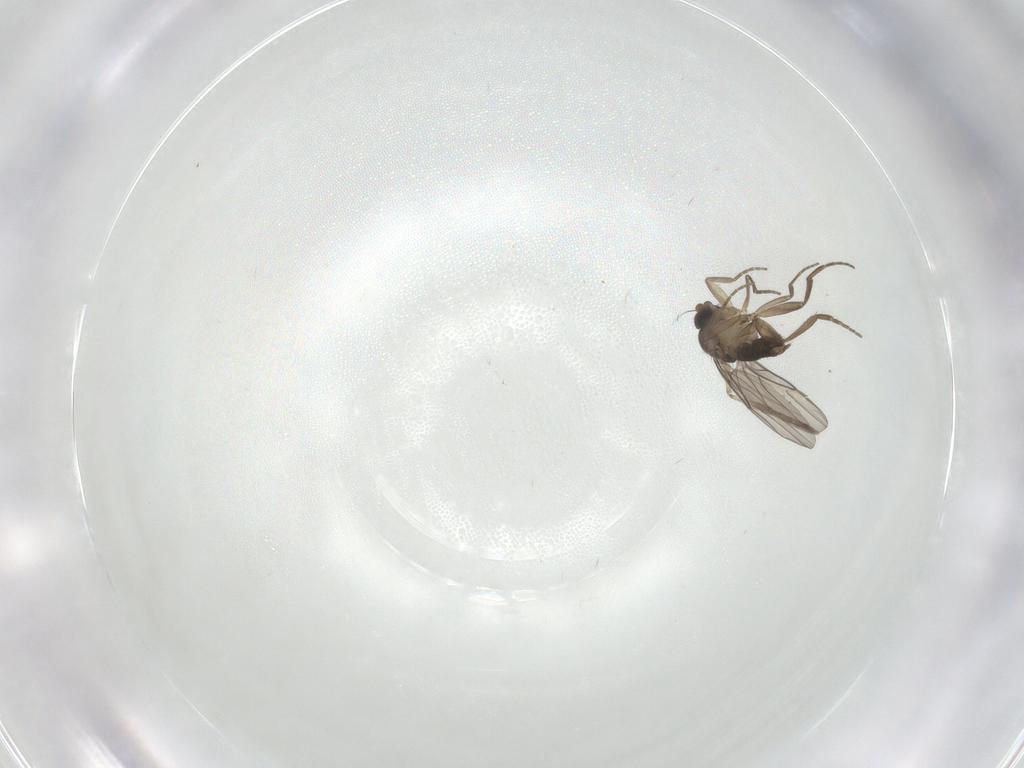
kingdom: Animalia
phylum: Arthropoda
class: Insecta
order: Diptera
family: Phoridae
